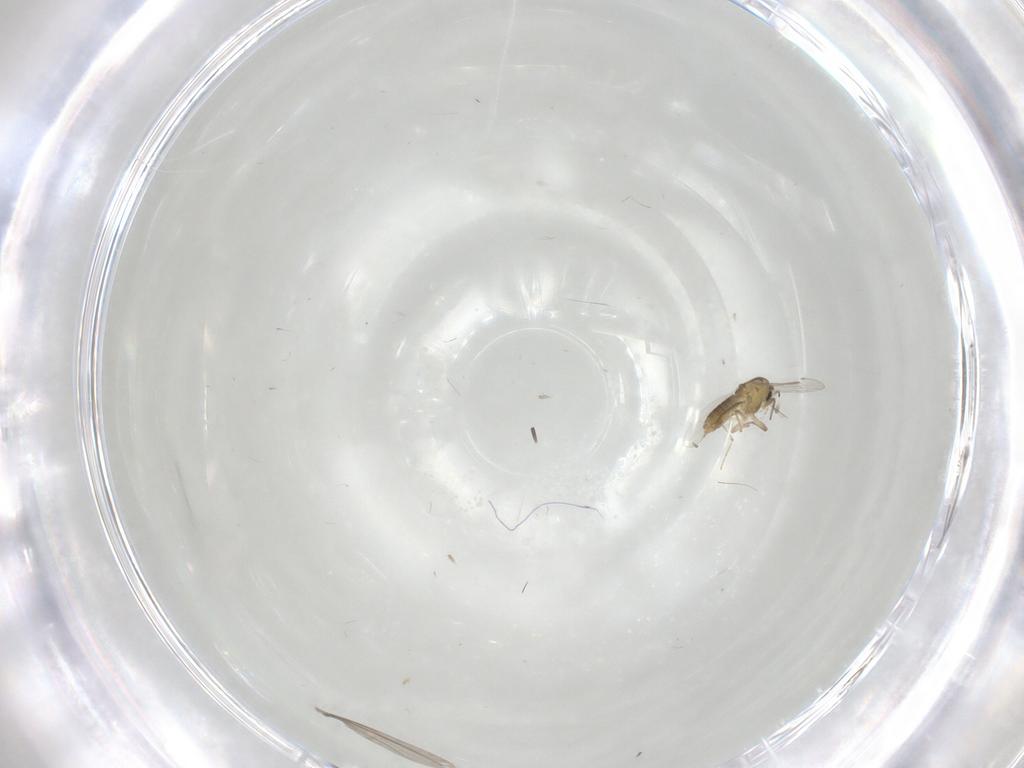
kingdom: Animalia
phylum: Arthropoda
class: Insecta
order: Diptera
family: Cecidomyiidae
